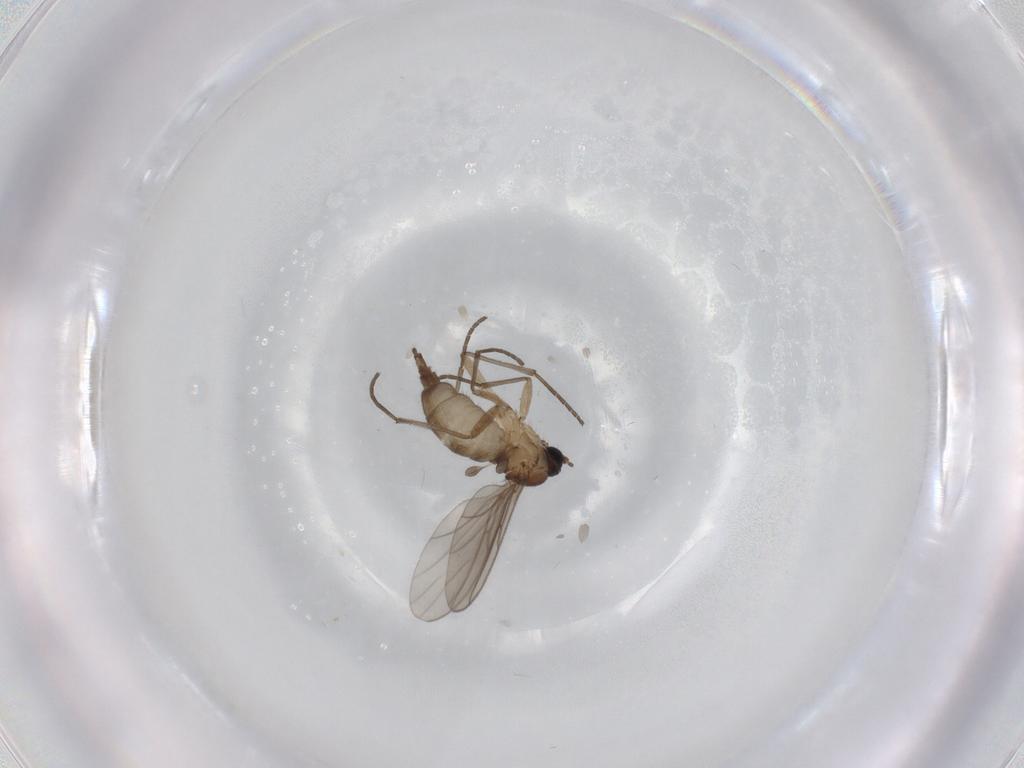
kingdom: Animalia
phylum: Arthropoda
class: Insecta
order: Diptera
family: Sciaridae
